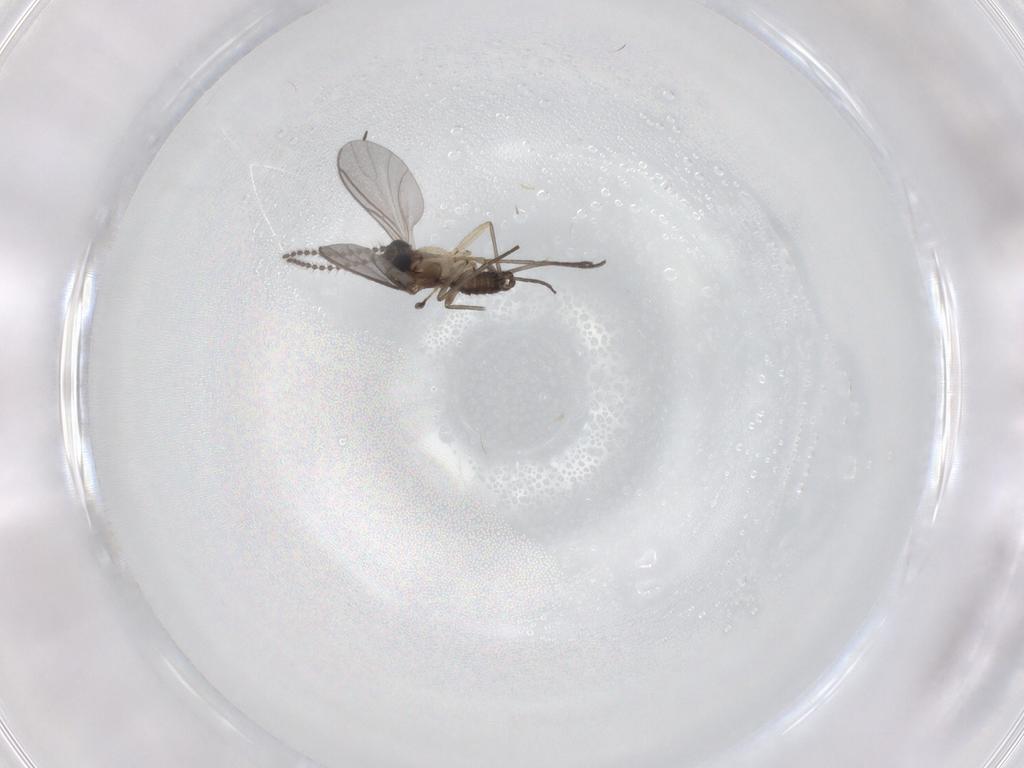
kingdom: Animalia
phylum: Arthropoda
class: Insecta
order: Diptera
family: Sciaridae
